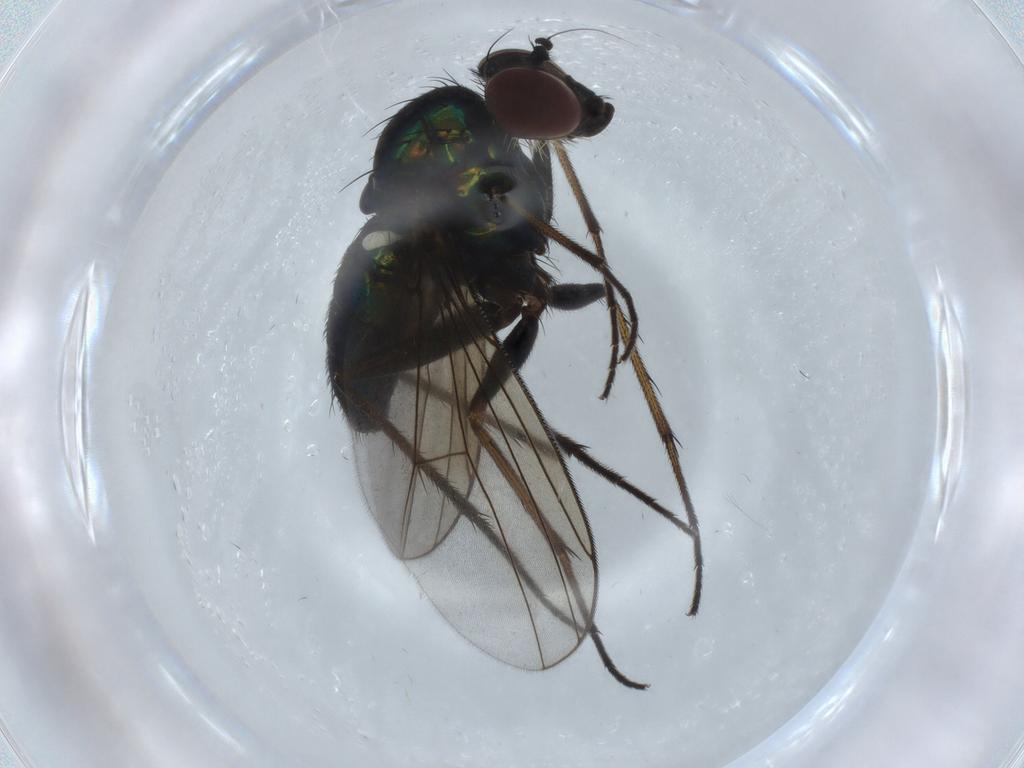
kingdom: Animalia
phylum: Arthropoda
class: Insecta
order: Diptera
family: Dolichopodidae
